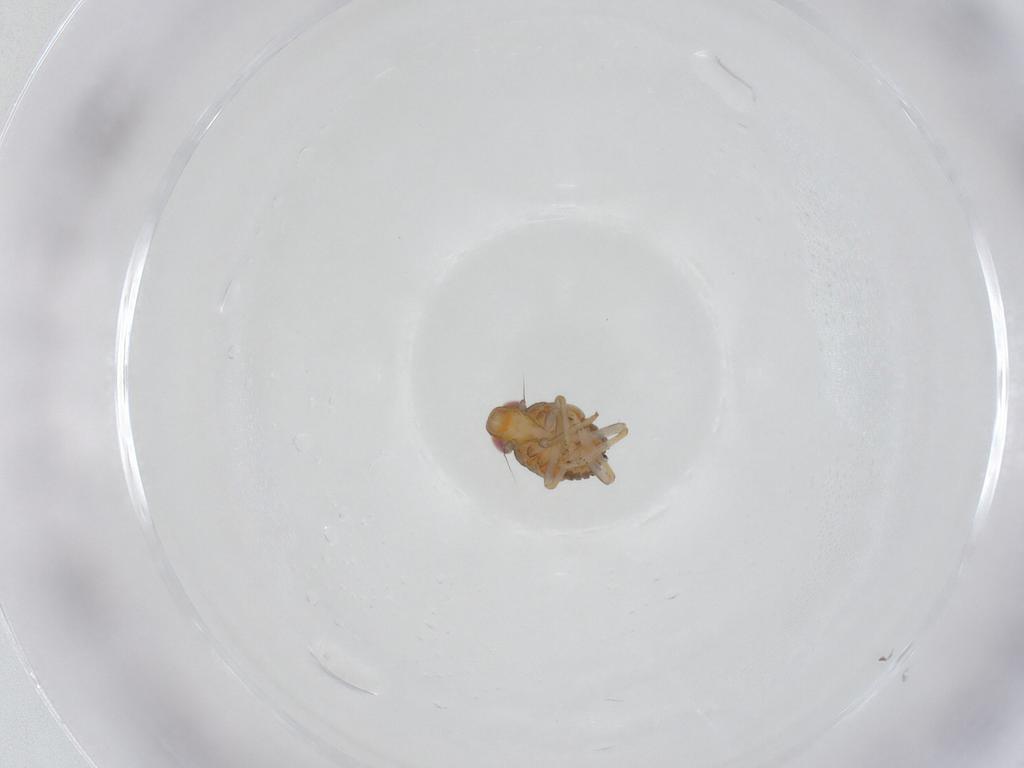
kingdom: Animalia
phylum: Arthropoda
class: Insecta
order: Hemiptera
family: Issidae
